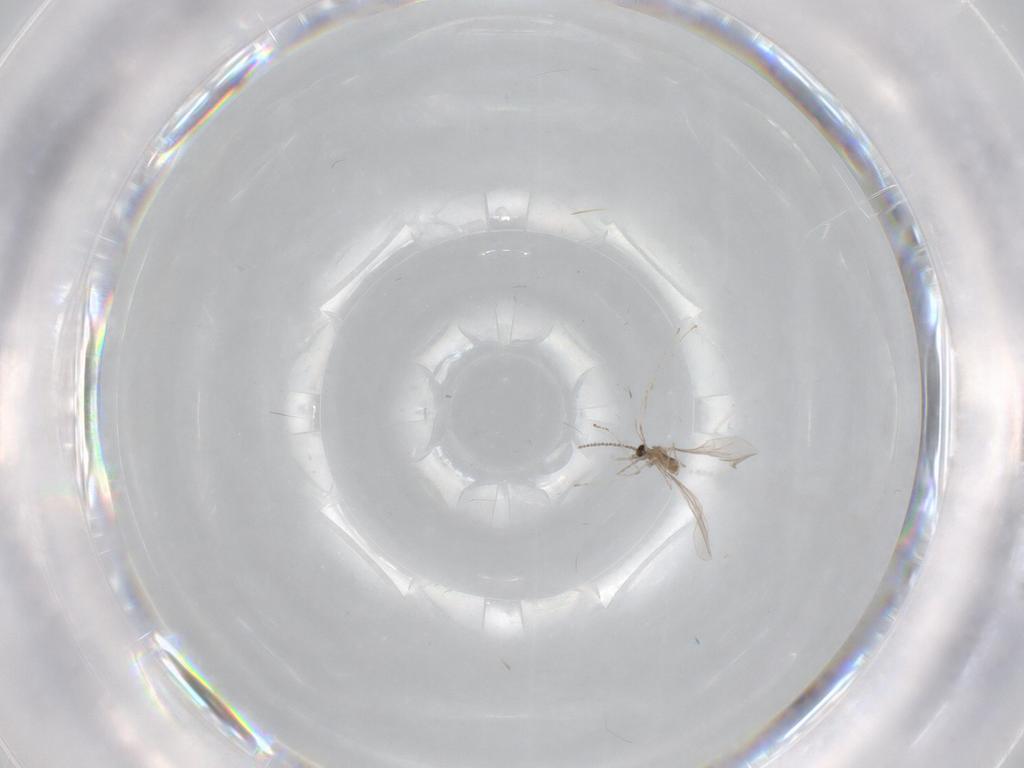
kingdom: Animalia
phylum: Arthropoda
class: Insecta
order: Diptera
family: Cecidomyiidae
